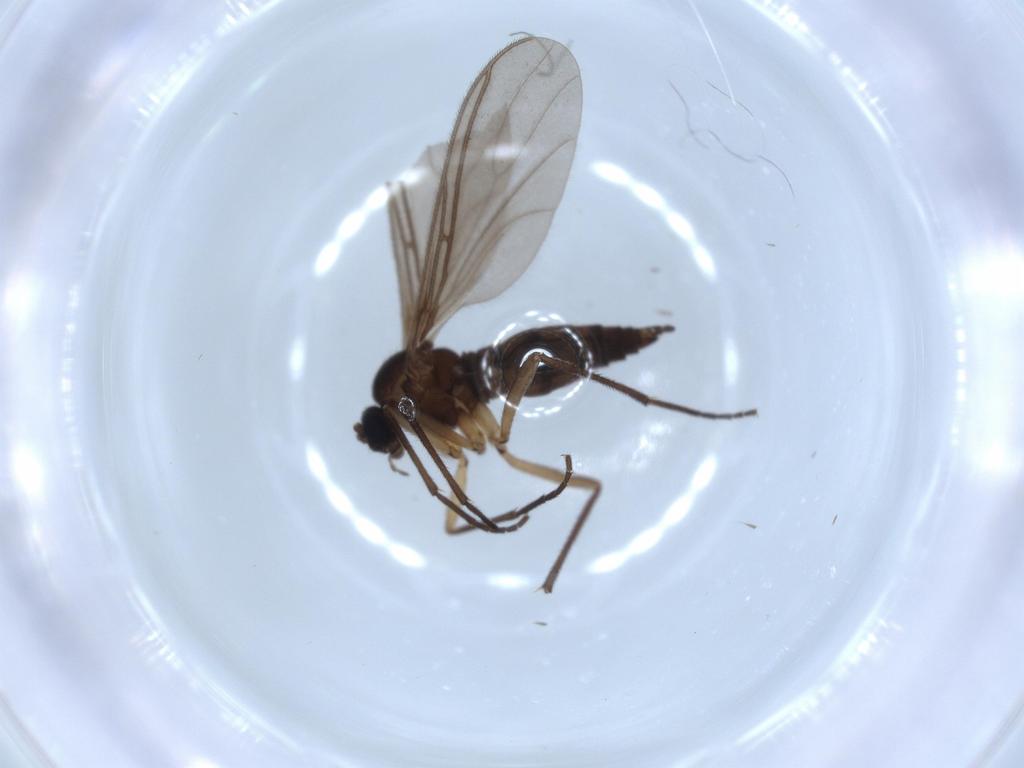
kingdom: Animalia
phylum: Arthropoda
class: Insecta
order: Diptera
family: Sciaridae
